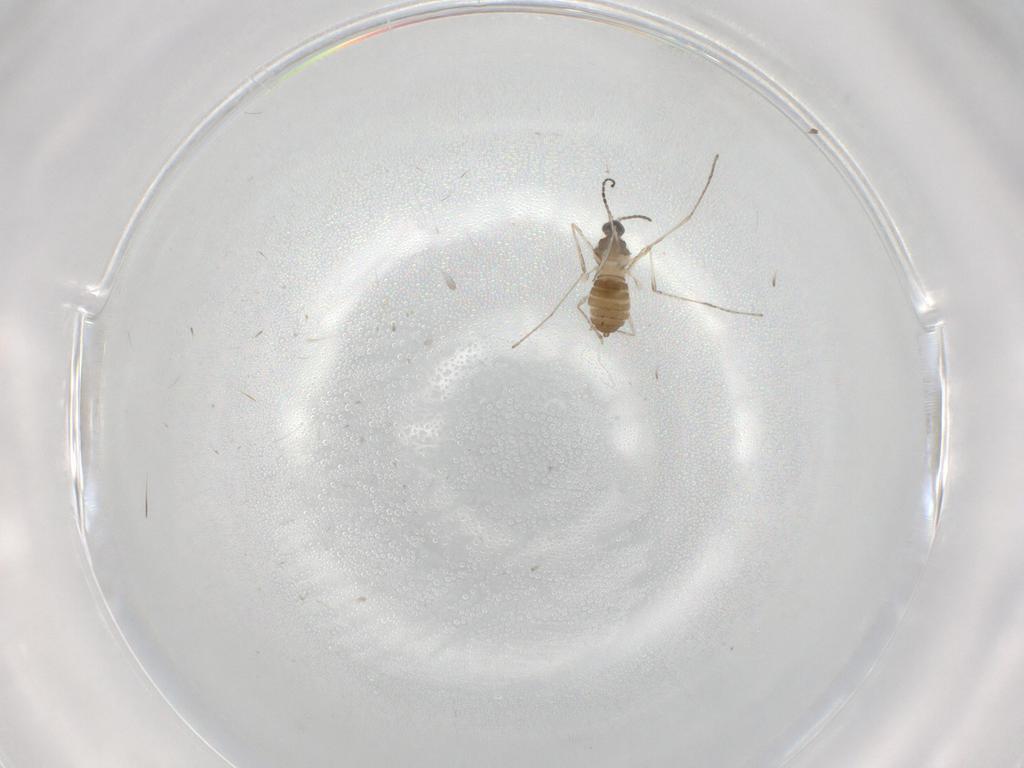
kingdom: Animalia
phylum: Arthropoda
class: Insecta
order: Diptera
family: Cecidomyiidae
